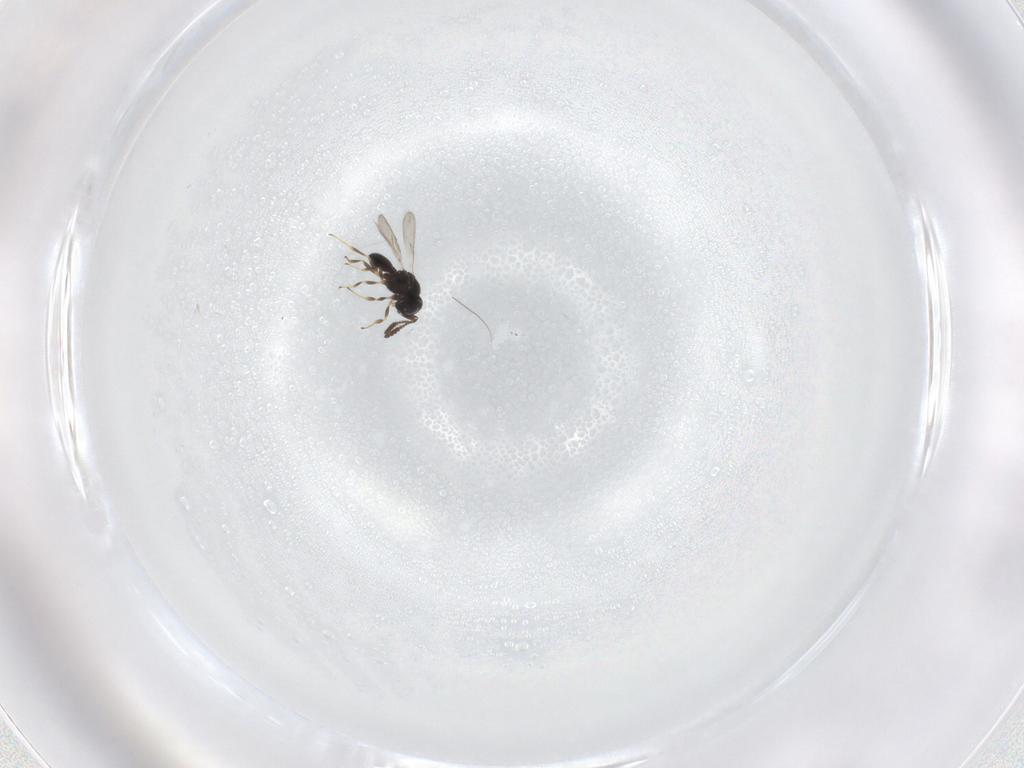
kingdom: Animalia
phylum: Arthropoda
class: Insecta
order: Hymenoptera
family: Scelionidae
